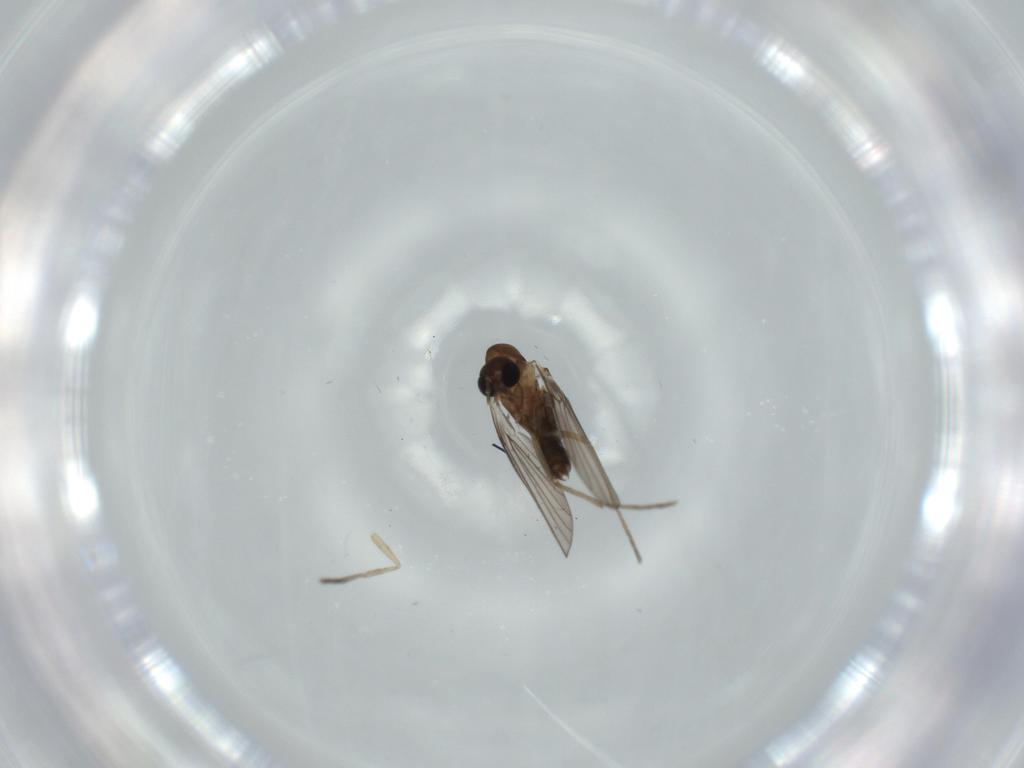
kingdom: Animalia
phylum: Arthropoda
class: Insecta
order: Diptera
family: Psychodidae
